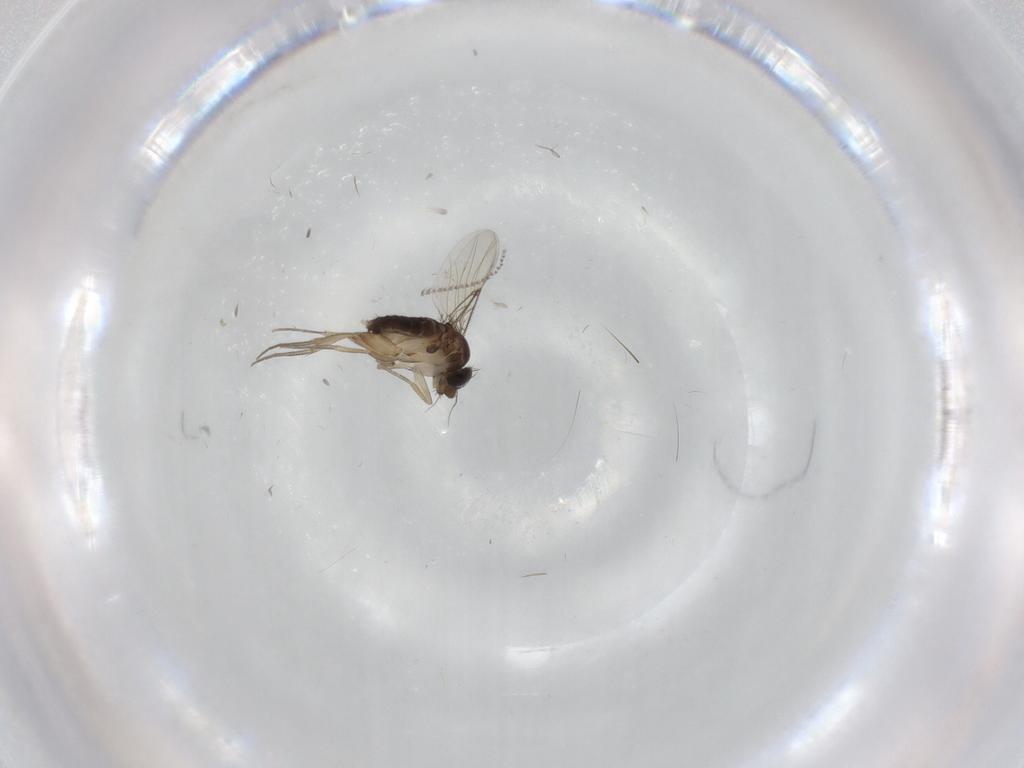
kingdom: Animalia
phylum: Arthropoda
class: Insecta
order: Diptera
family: Phoridae
